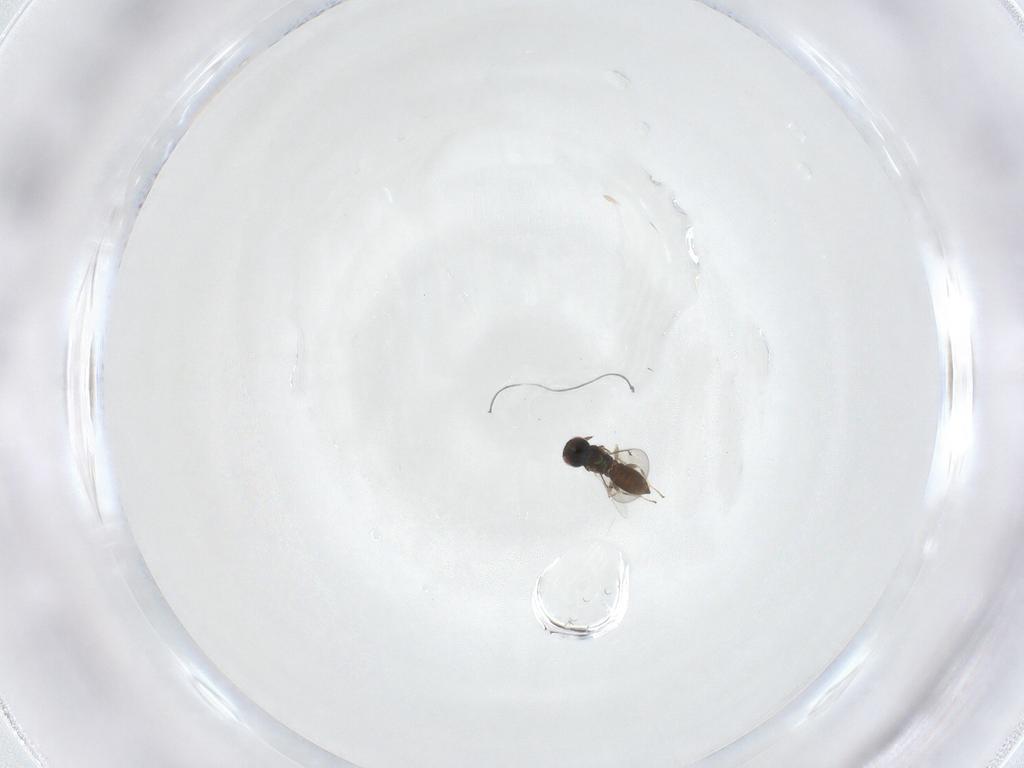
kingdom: Animalia
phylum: Arthropoda
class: Insecta
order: Hymenoptera
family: Eulophidae
